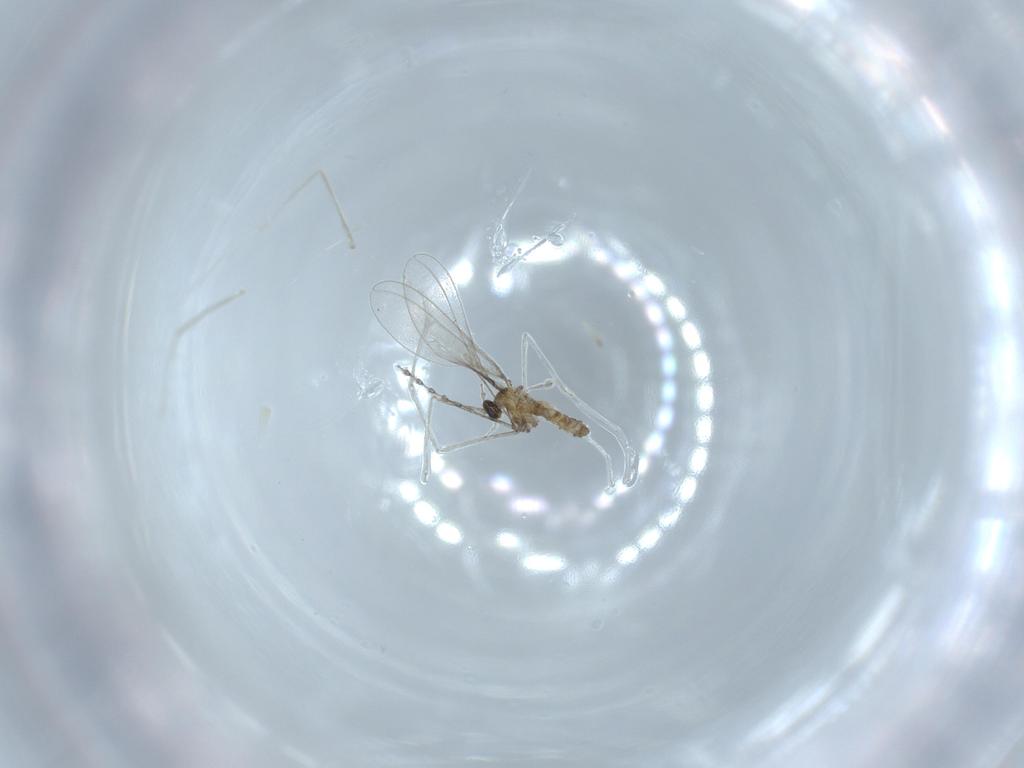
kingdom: Animalia
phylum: Arthropoda
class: Insecta
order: Diptera
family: Cecidomyiidae
